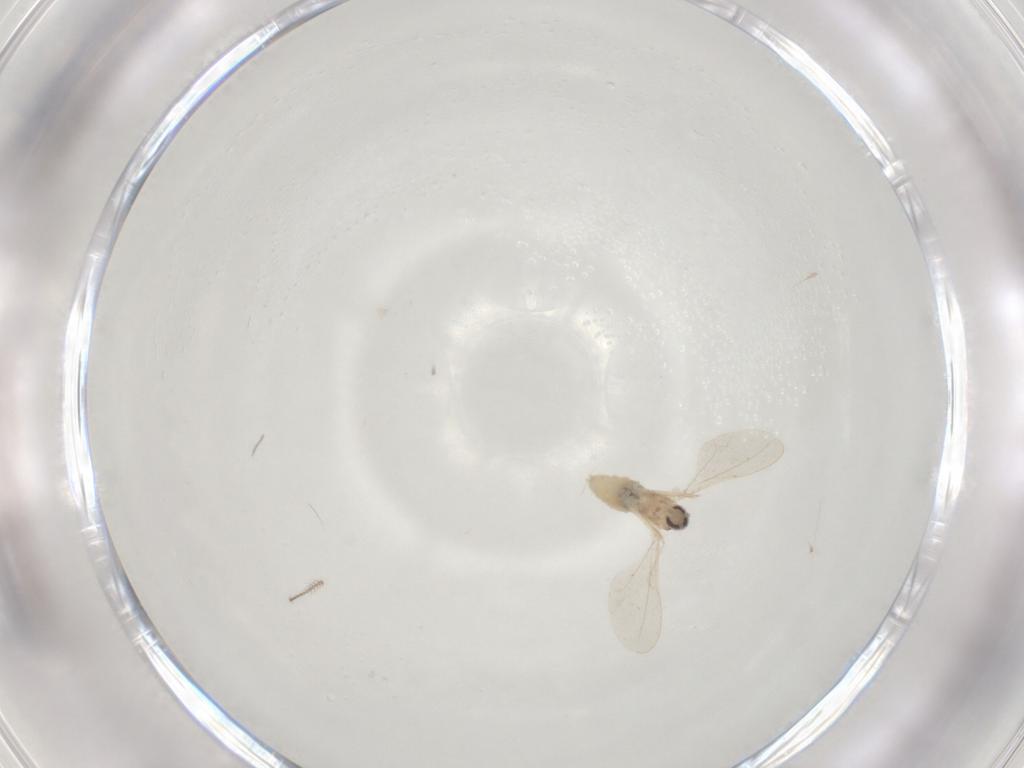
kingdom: Animalia
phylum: Arthropoda
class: Insecta
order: Diptera
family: Cecidomyiidae
